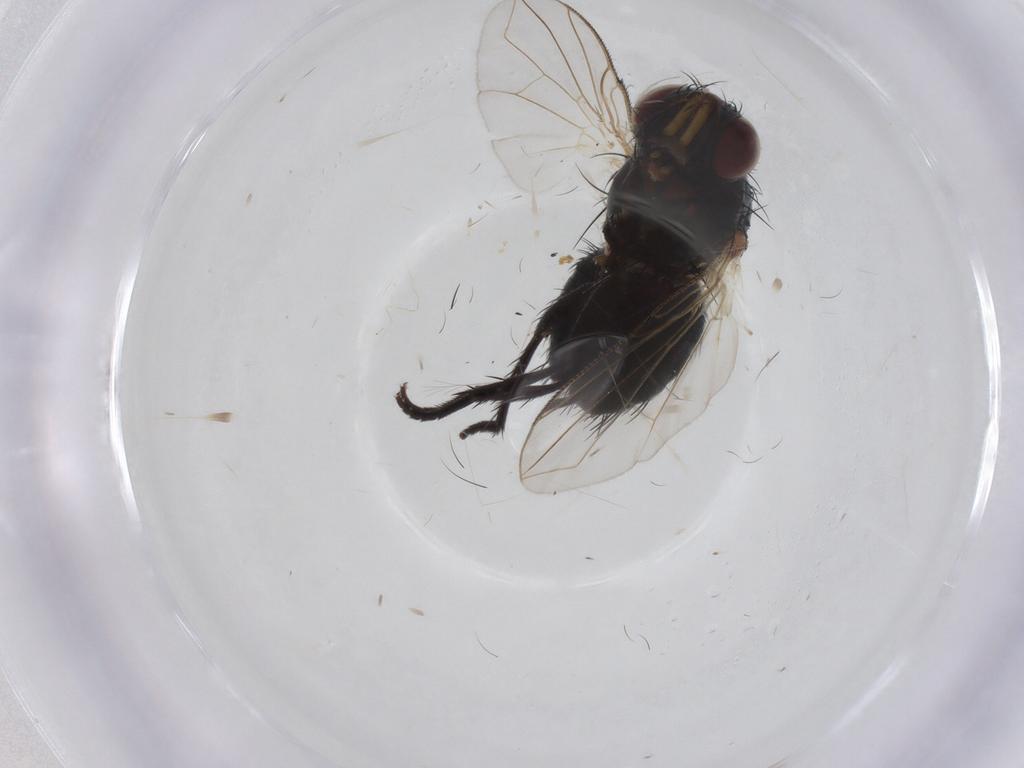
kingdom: Animalia
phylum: Arthropoda
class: Insecta
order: Diptera
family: Tachinidae
